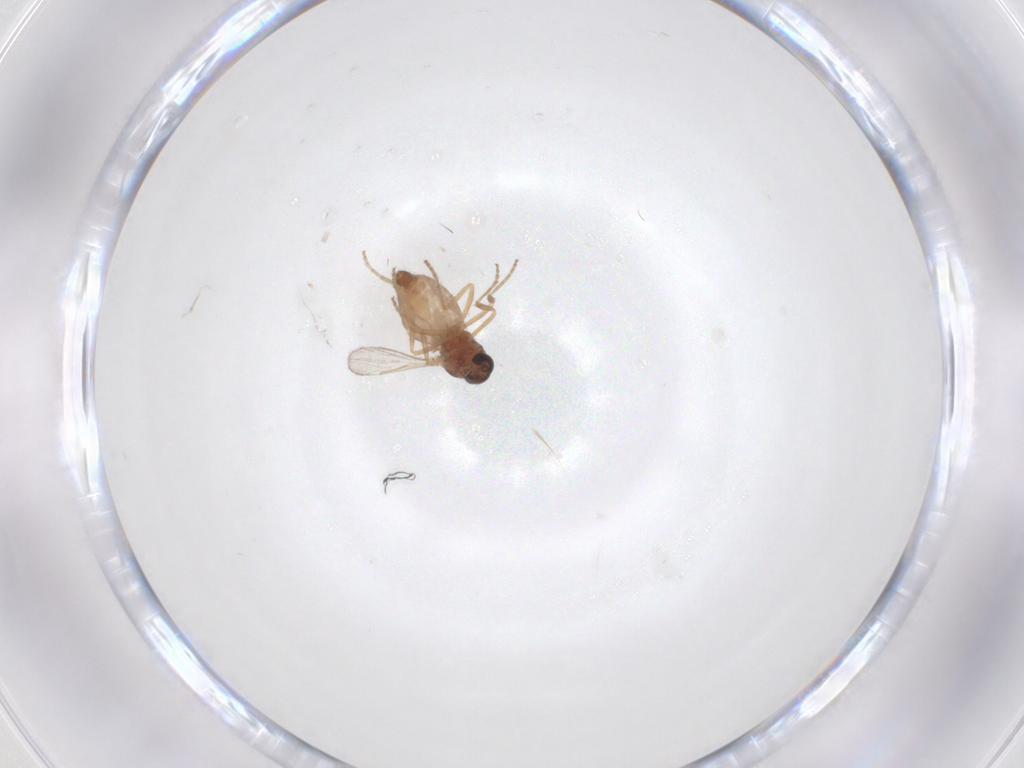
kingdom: Animalia
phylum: Arthropoda
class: Insecta
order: Diptera
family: Ceratopogonidae
